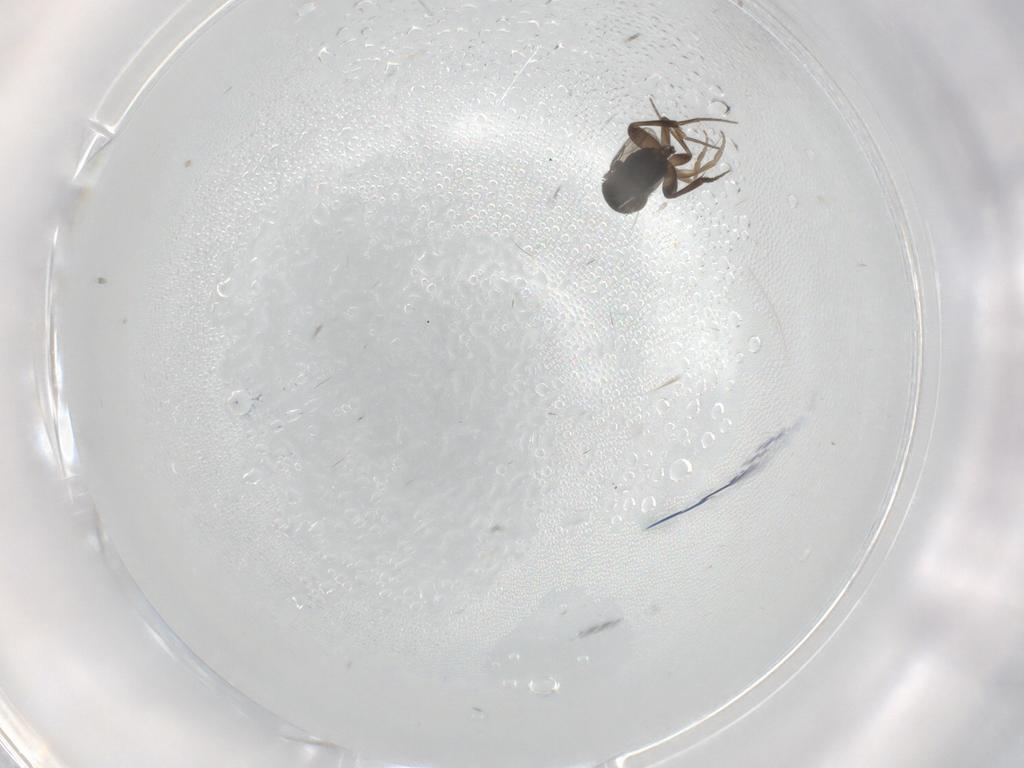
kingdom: Animalia
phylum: Arthropoda
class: Insecta
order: Diptera
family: Phoridae
